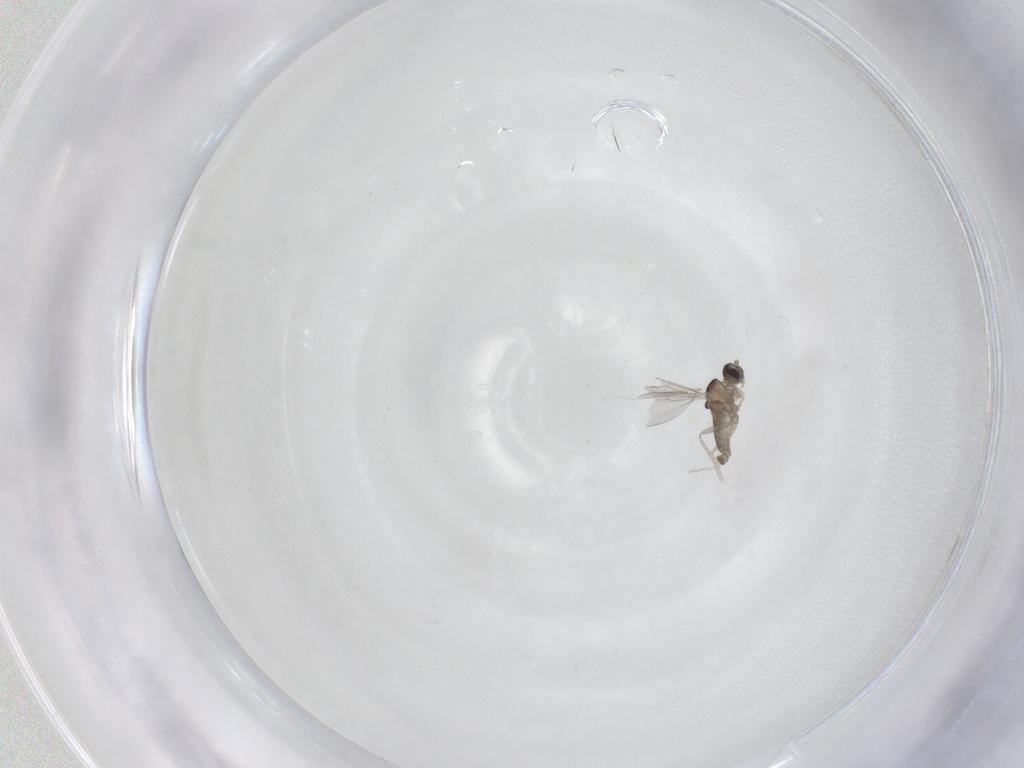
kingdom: Animalia
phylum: Arthropoda
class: Insecta
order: Diptera
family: Cecidomyiidae
